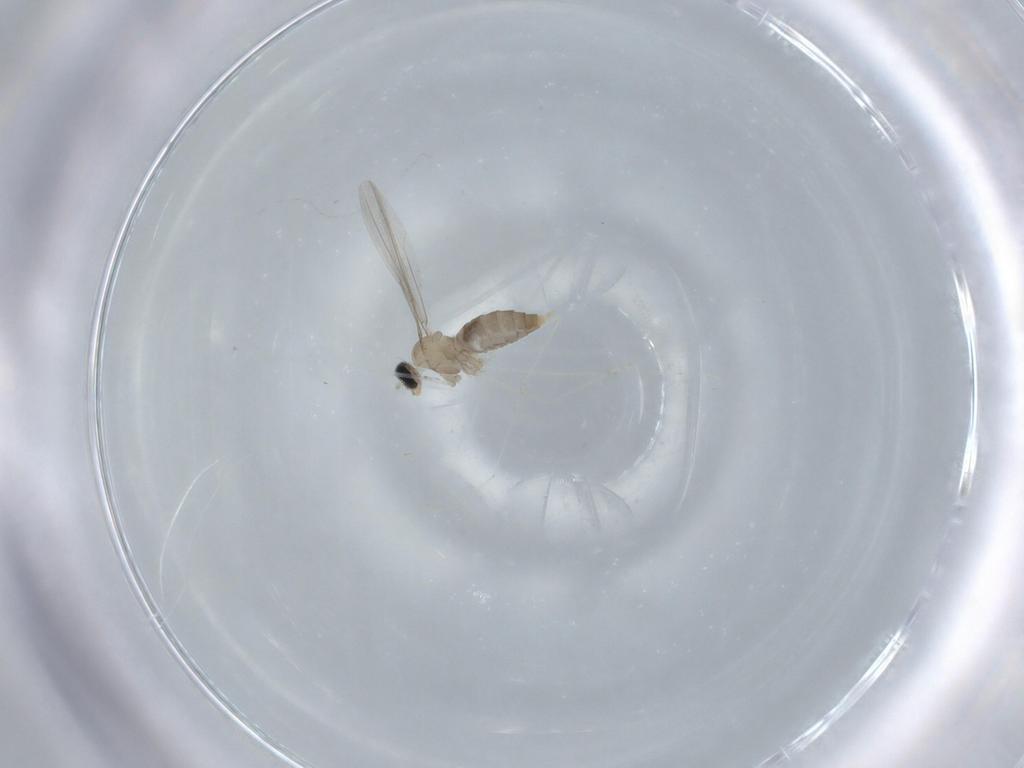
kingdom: Animalia
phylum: Arthropoda
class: Insecta
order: Diptera
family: Cecidomyiidae
